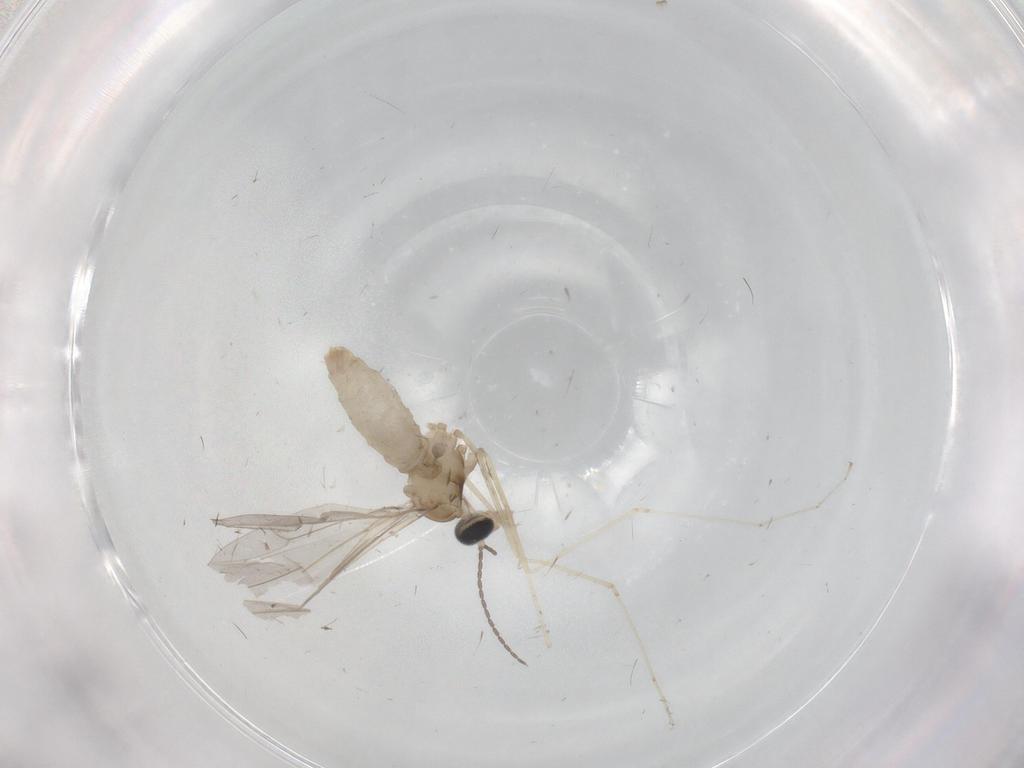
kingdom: Animalia
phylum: Arthropoda
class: Insecta
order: Diptera
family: Cecidomyiidae
